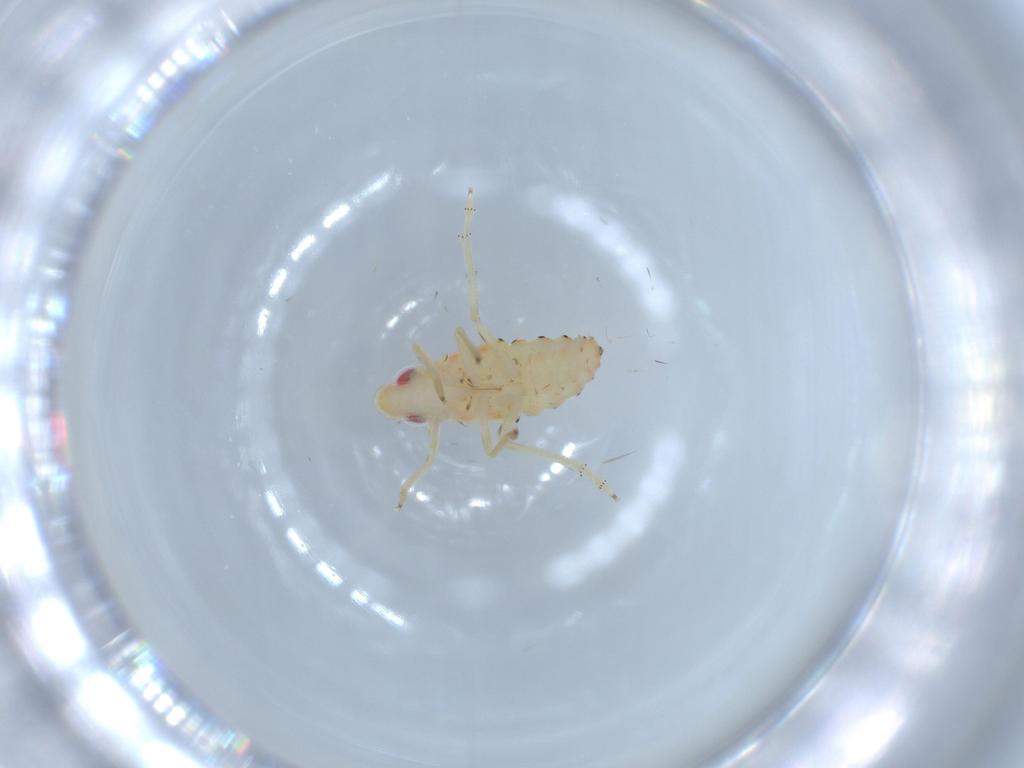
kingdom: Animalia
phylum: Arthropoda
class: Insecta
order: Hemiptera
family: Tropiduchidae
